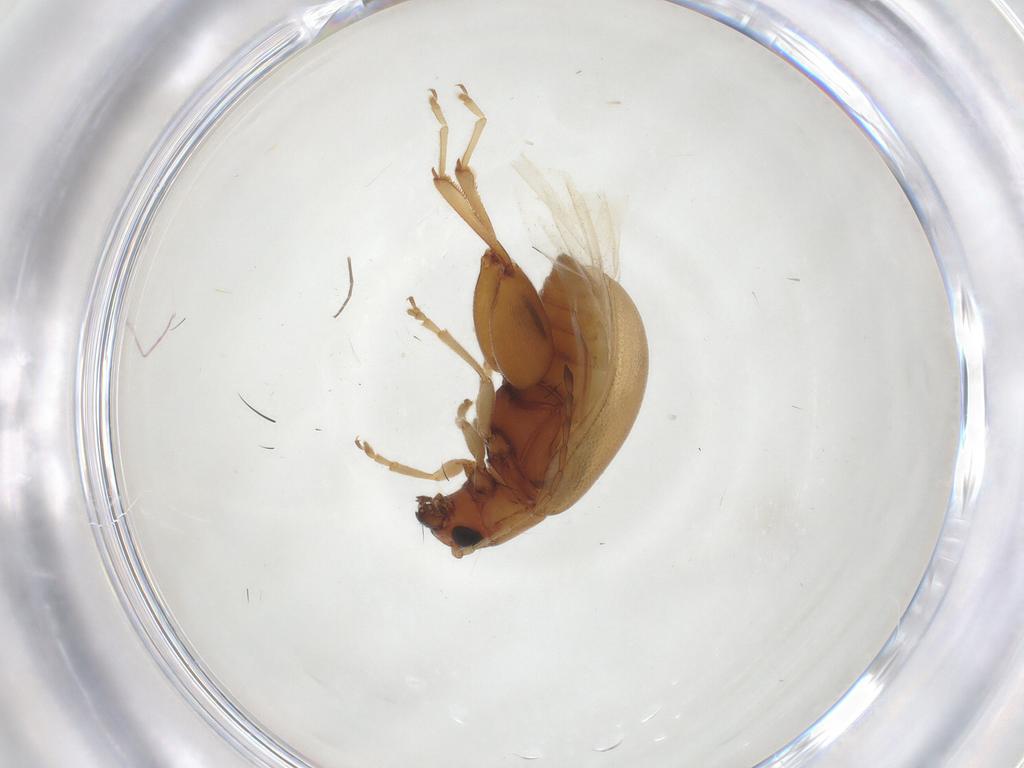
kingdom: Animalia
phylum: Arthropoda
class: Insecta
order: Coleoptera
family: Chrysomelidae
